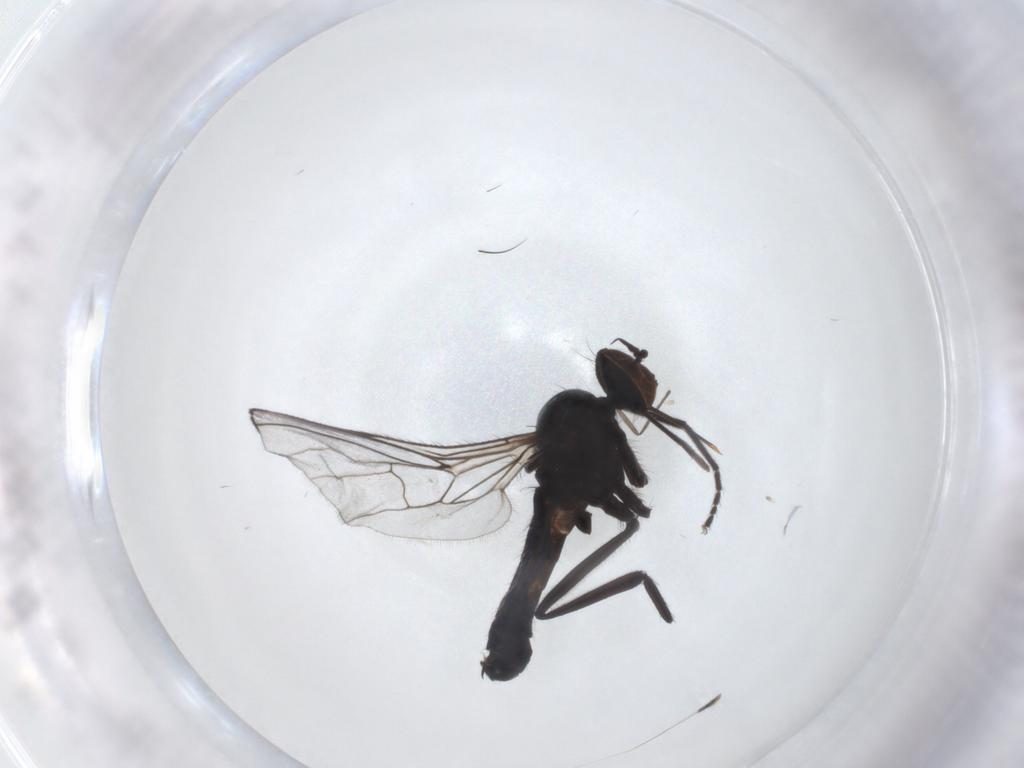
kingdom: Animalia
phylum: Arthropoda
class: Insecta
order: Diptera
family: Empididae
